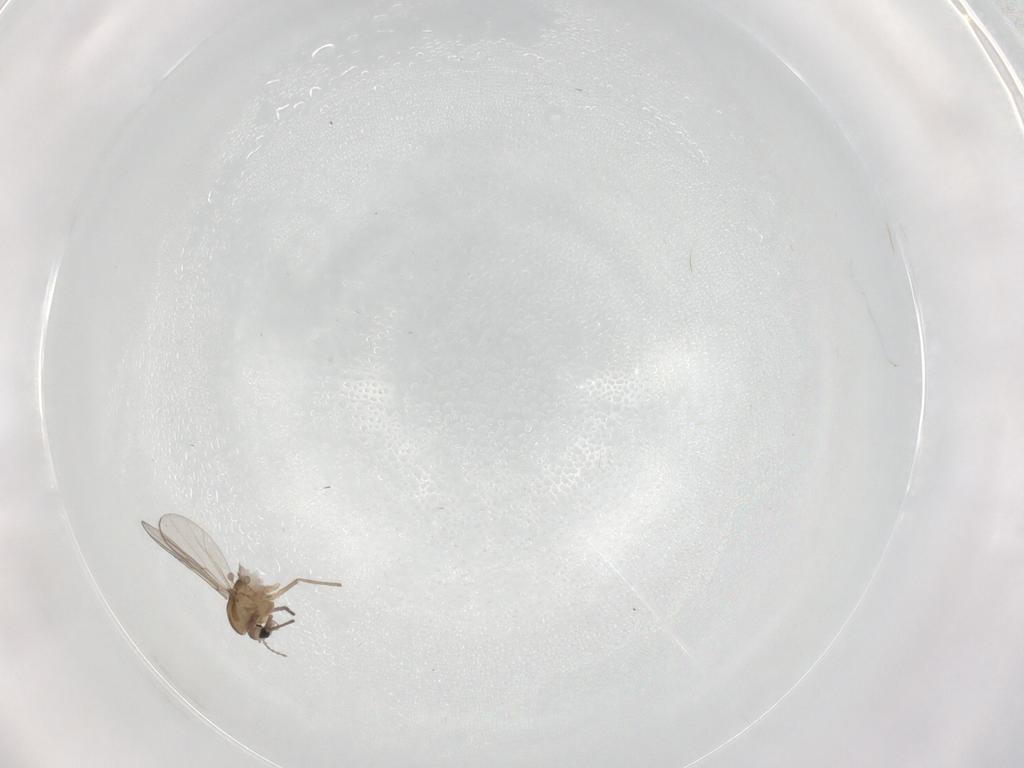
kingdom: Animalia
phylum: Arthropoda
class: Insecta
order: Diptera
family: Chironomidae
